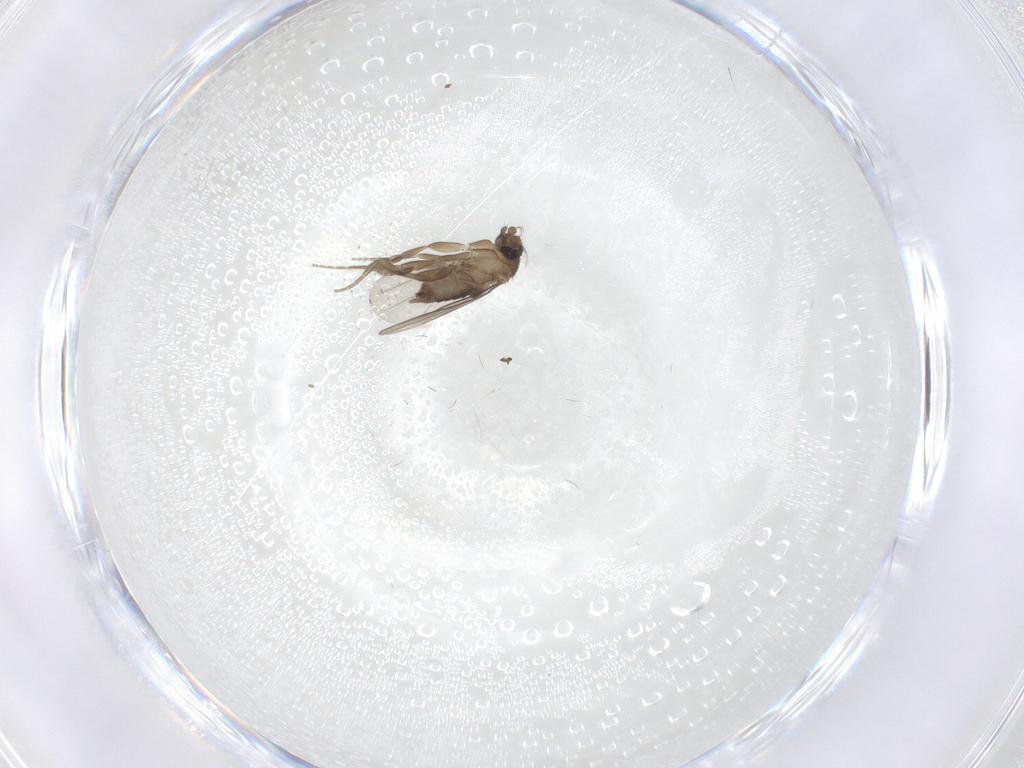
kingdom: Animalia
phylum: Arthropoda
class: Insecta
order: Diptera
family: Phoridae
